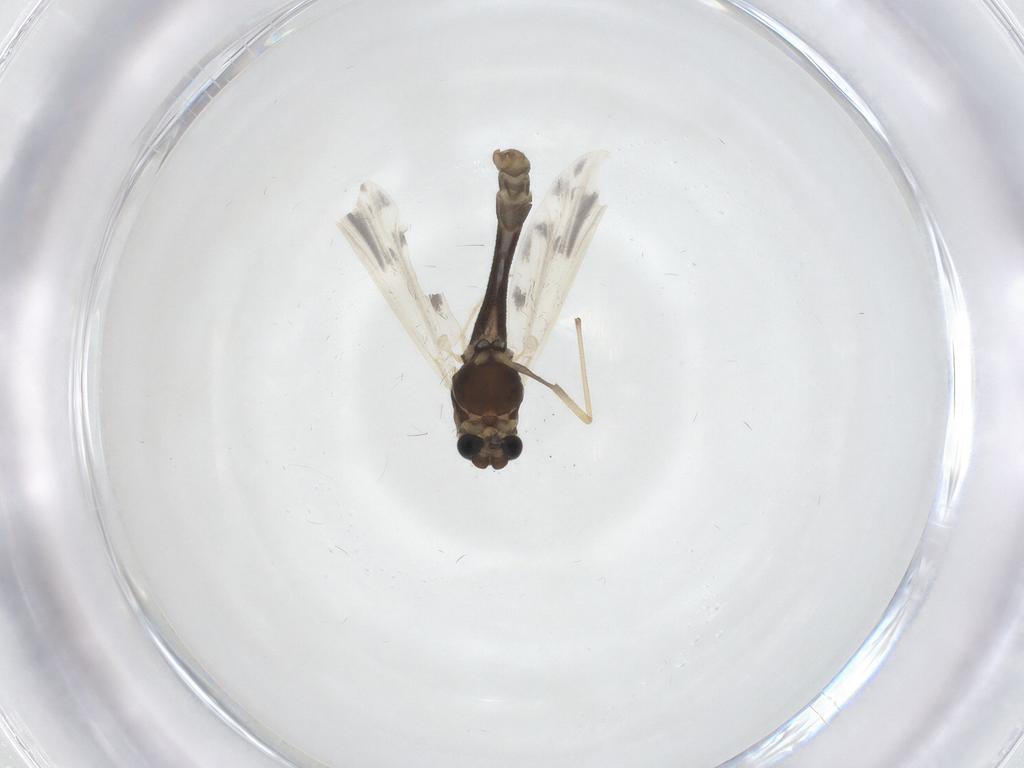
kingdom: Animalia
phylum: Arthropoda
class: Insecta
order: Diptera
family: Chironomidae
